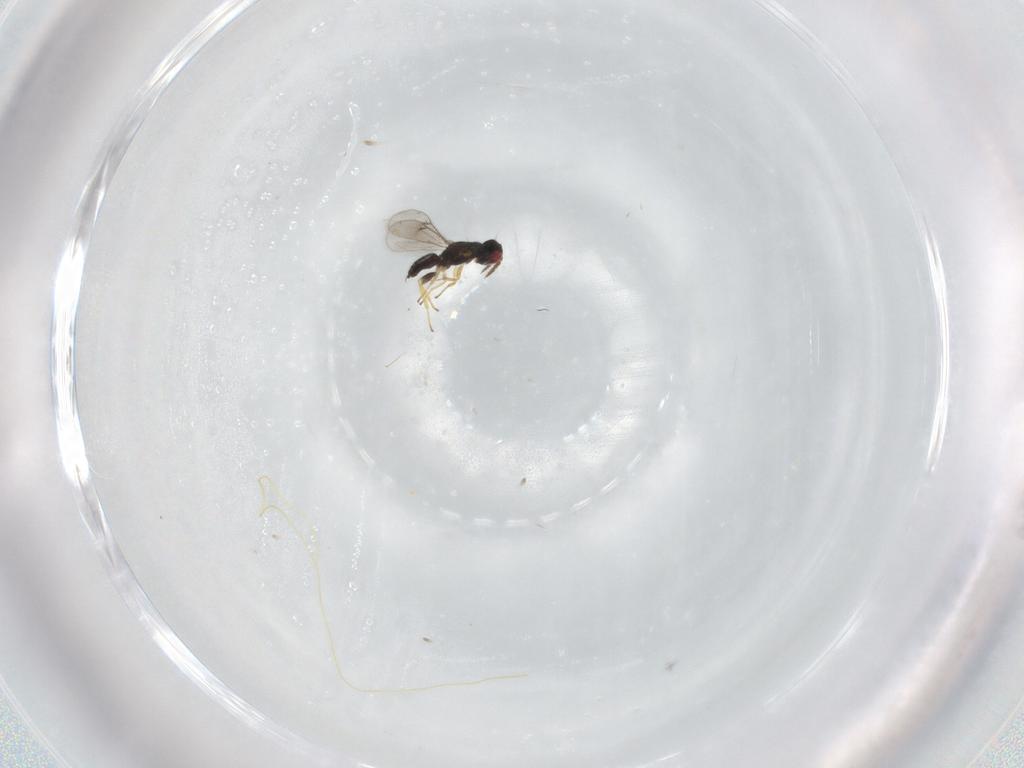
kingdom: Animalia
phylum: Arthropoda
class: Insecta
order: Hymenoptera
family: Eulophidae
